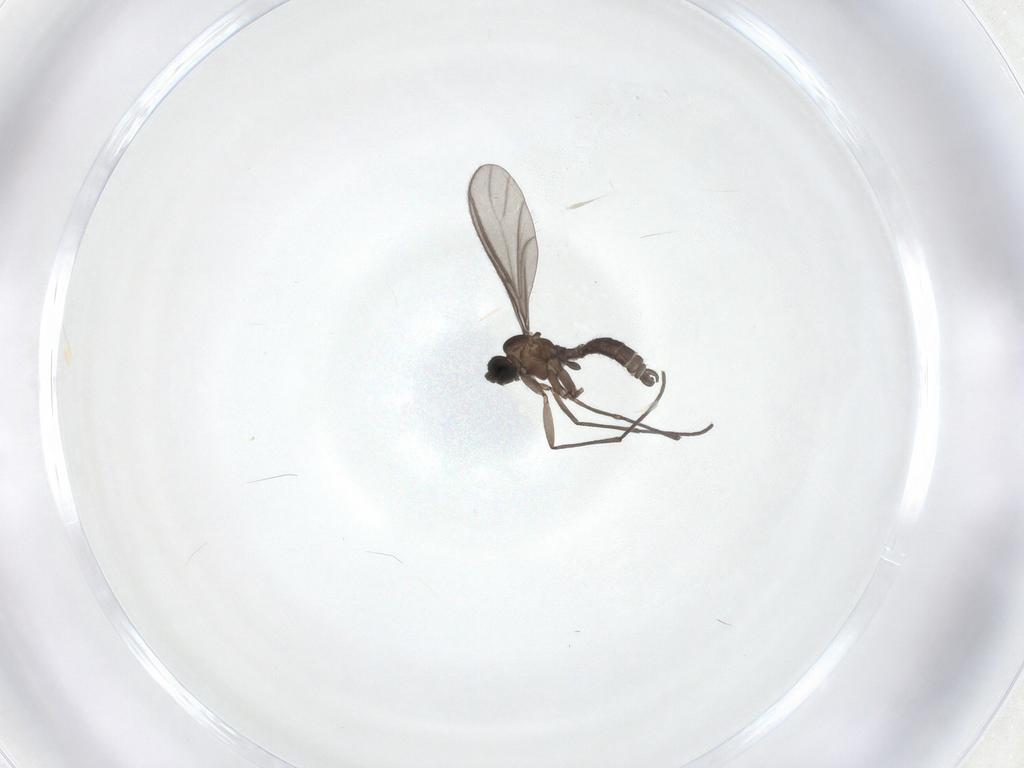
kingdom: Animalia
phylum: Arthropoda
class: Insecta
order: Diptera
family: Sciaridae
